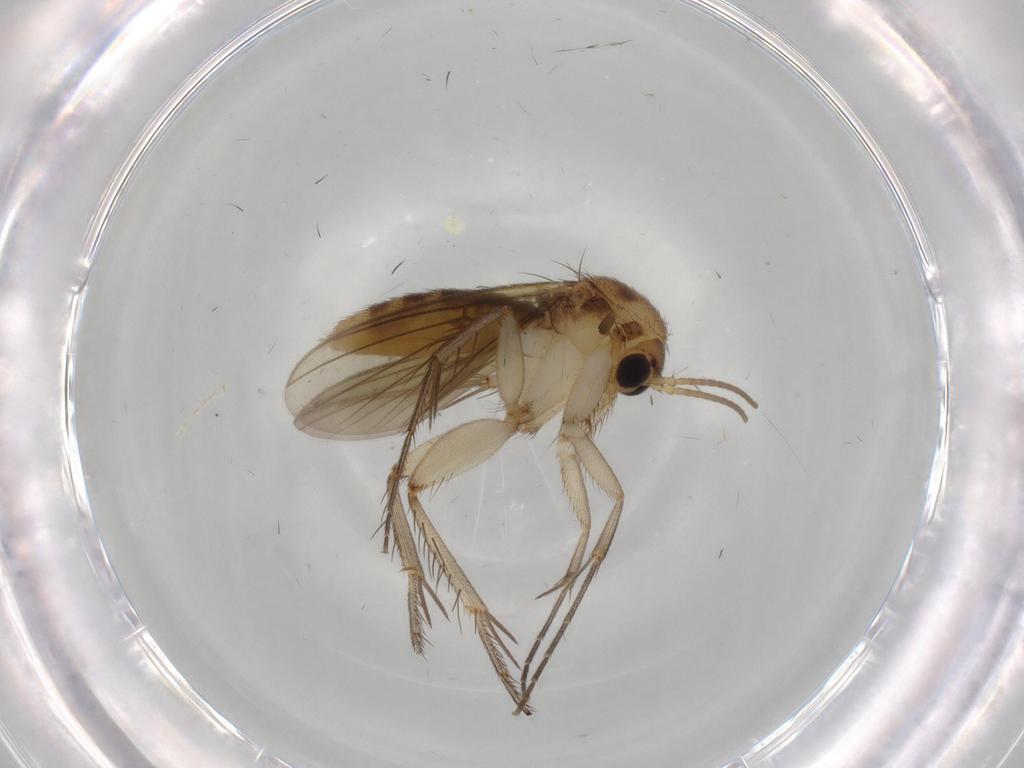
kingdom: Animalia
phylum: Arthropoda
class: Insecta
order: Diptera
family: Mycetophilidae
